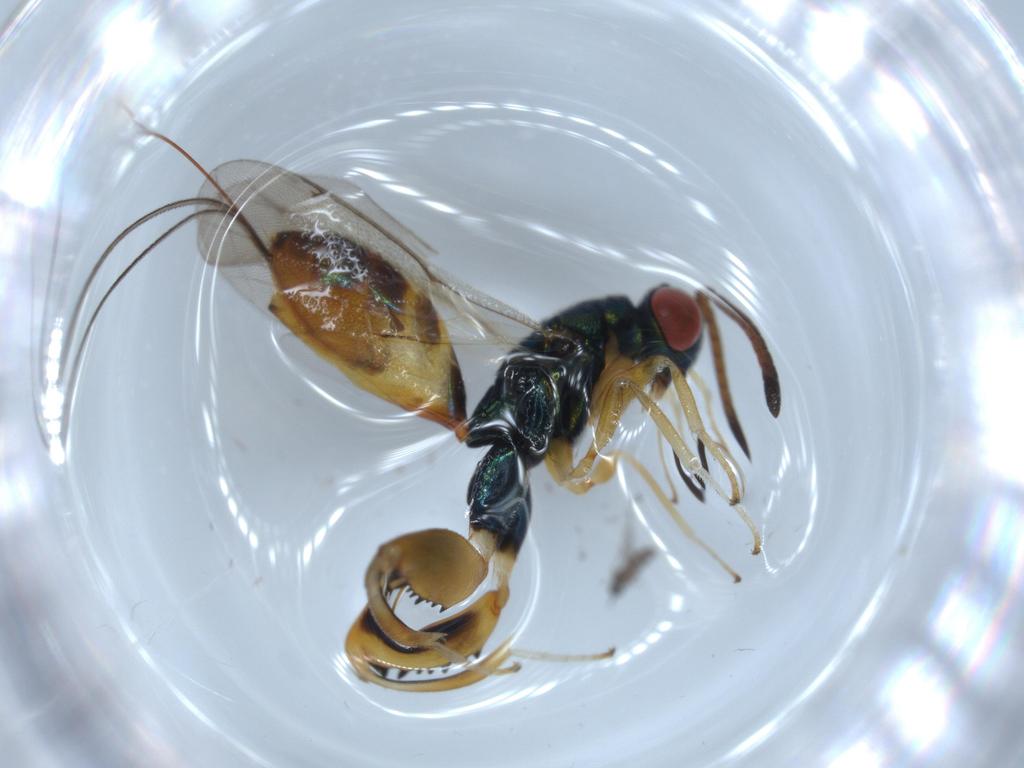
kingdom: Animalia
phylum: Arthropoda
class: Insecta
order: Hymenoptera
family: Torymidae
